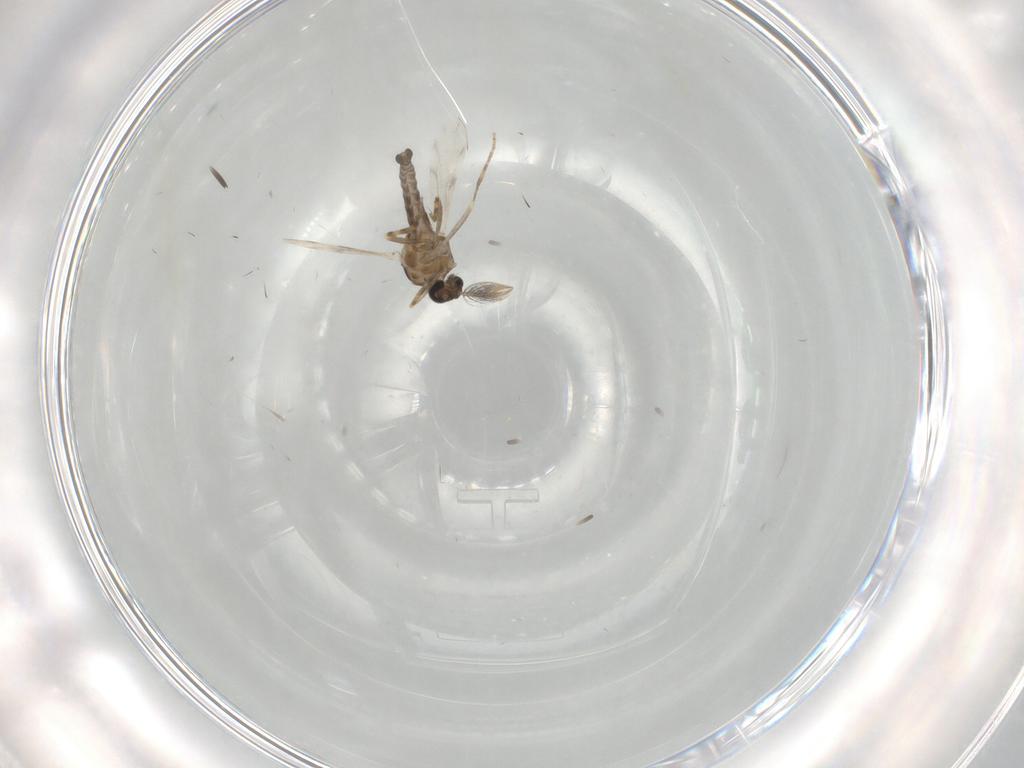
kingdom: Animalia
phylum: Arthropoda
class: Insecta
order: Diptera
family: Ceratopogonidae
